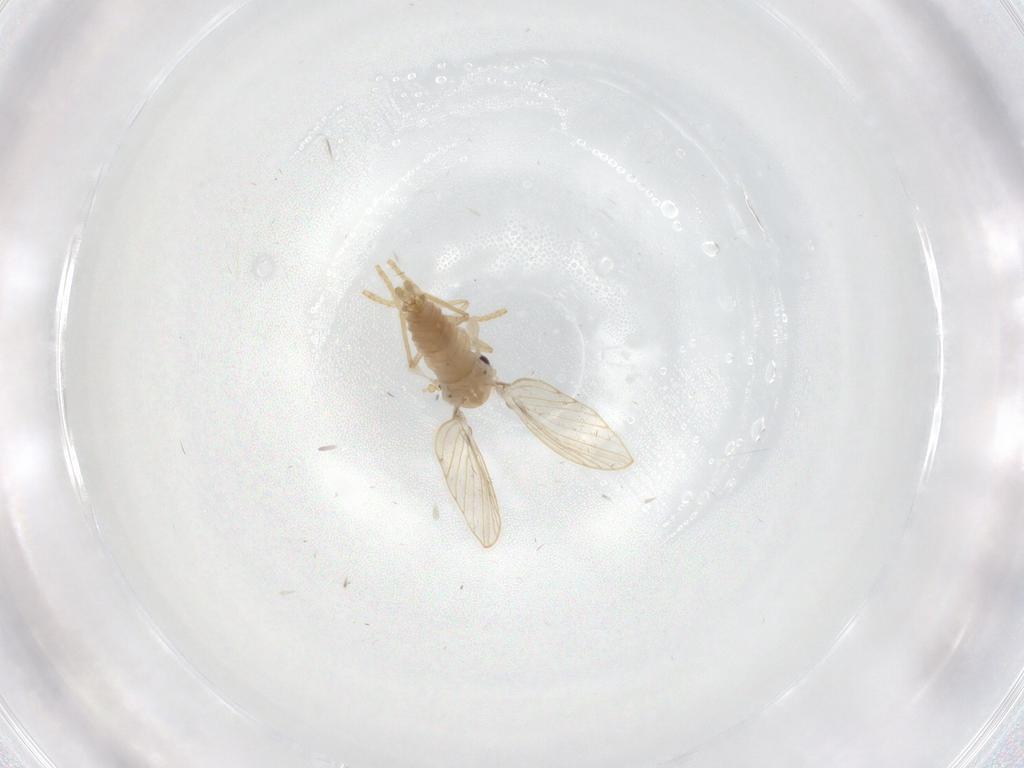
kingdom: Animalia
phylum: Arthropoda
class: Insecta
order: Diptera
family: Psychodidae
